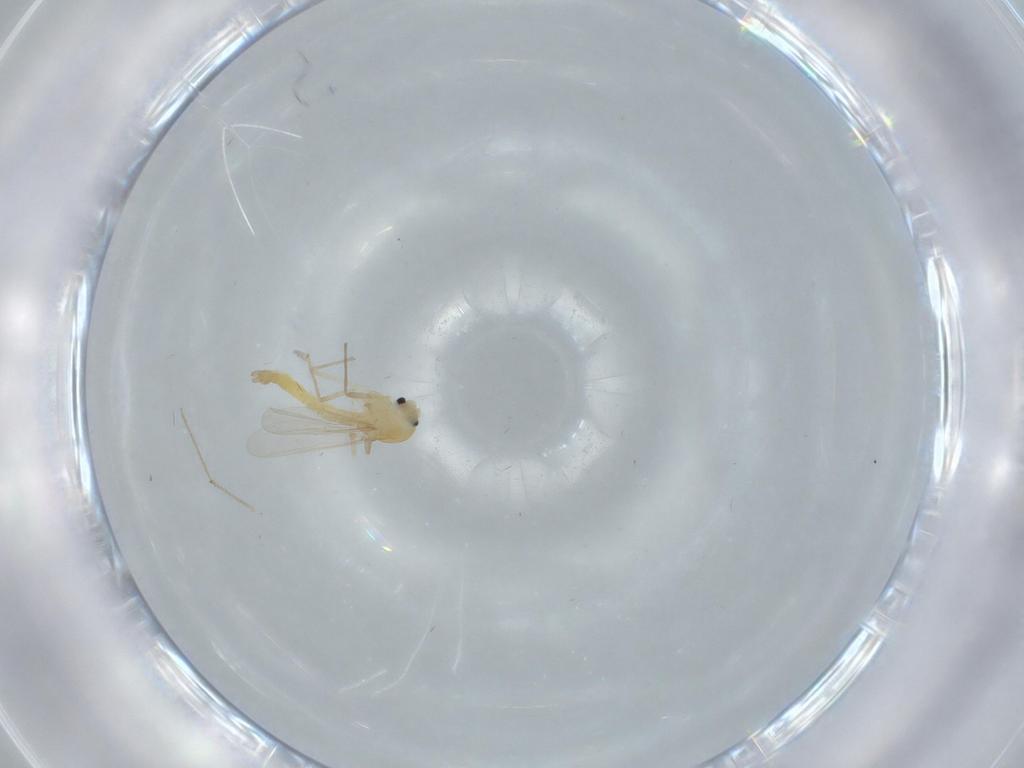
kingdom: Animalia
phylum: Arthropoda
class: Insecta
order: Diptera
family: Chironomidae
